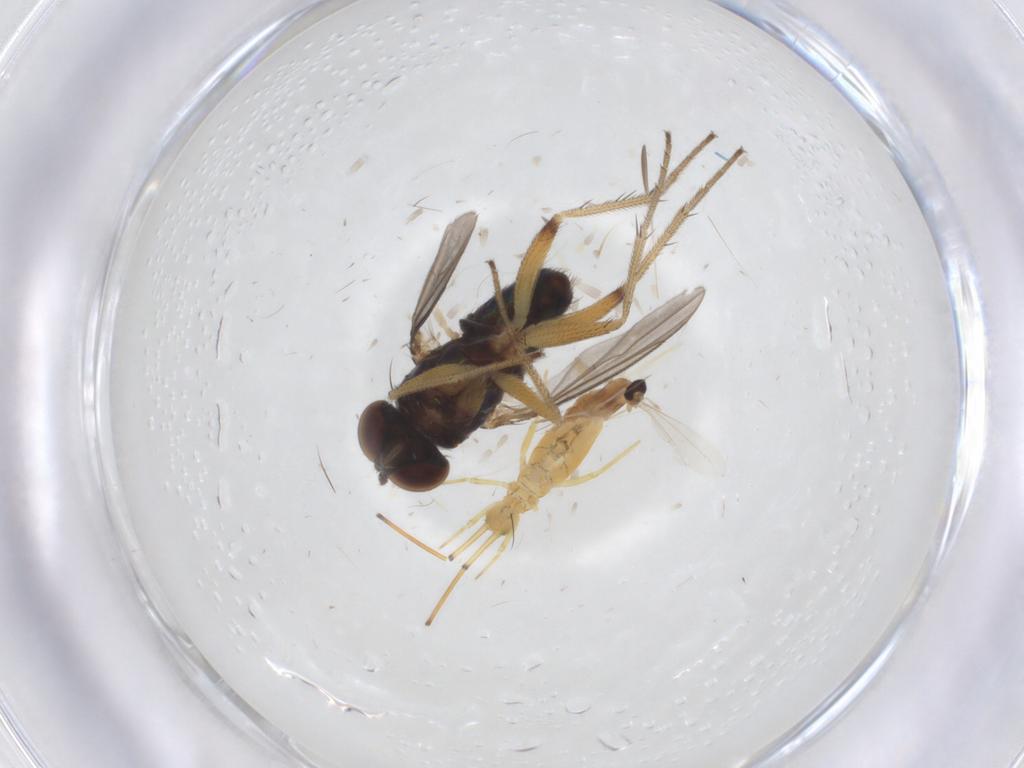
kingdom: Animalia
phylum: Arthropoda
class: Insecta
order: Diptera
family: Cecidomyiidae
